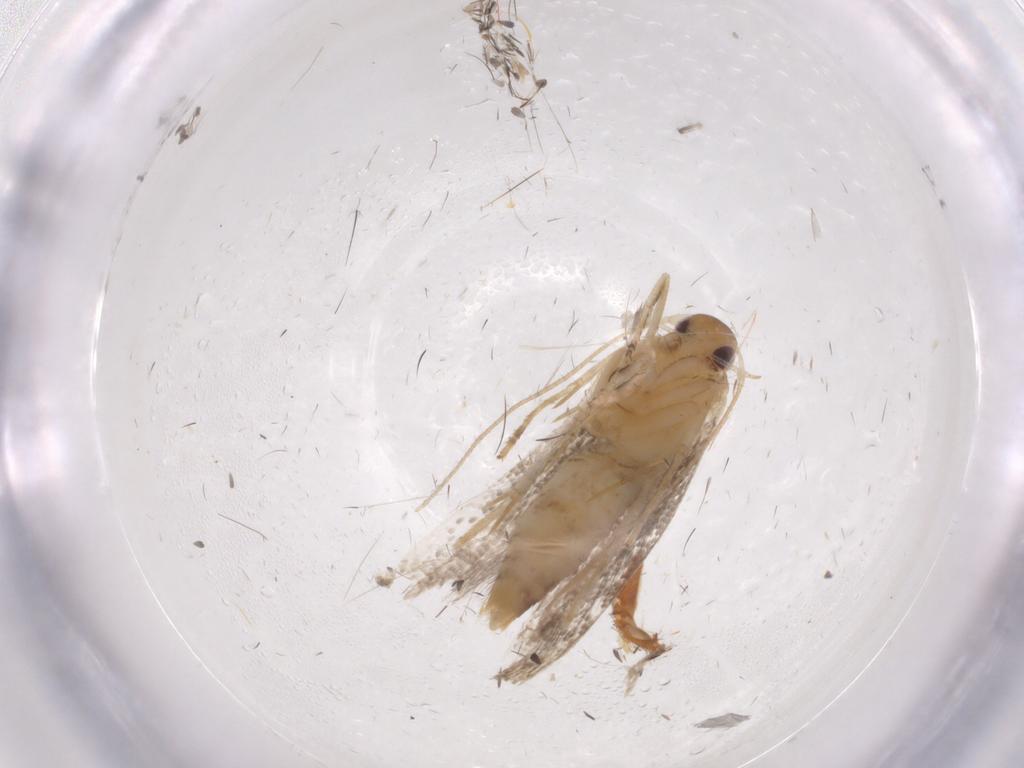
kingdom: Animalia
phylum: Arthropoda
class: Insecta
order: Lepidoptera
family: Momphidae
